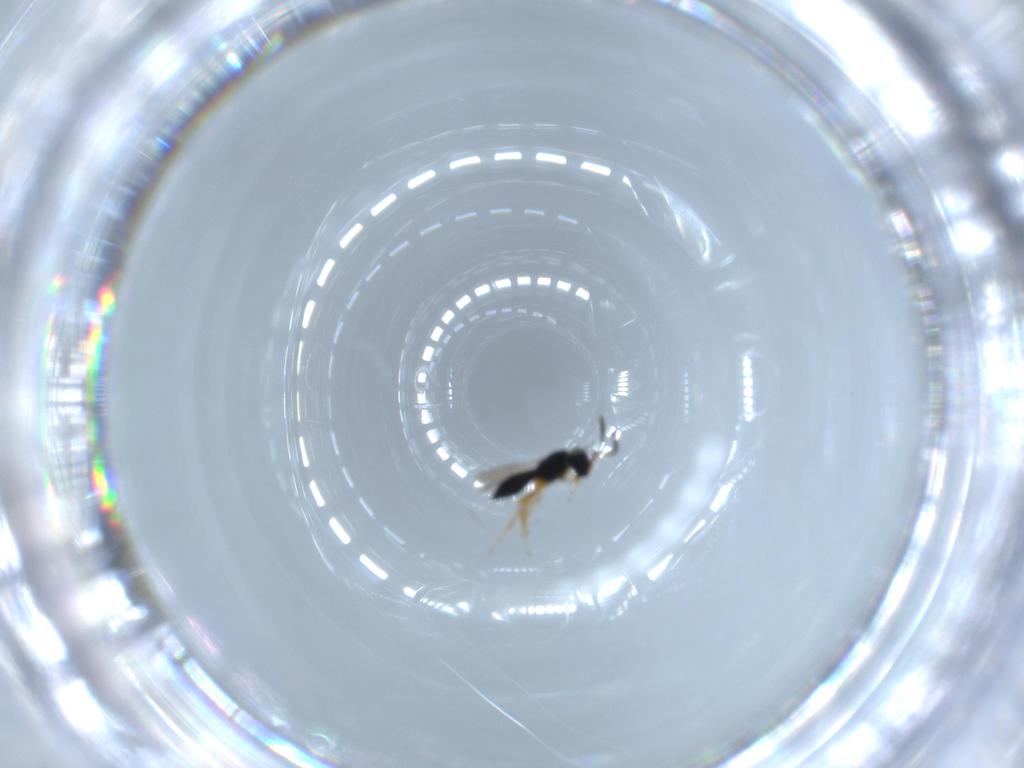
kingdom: Animalia
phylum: Arthropoda
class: Insecta
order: Hymenoptera
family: Scelionidae
